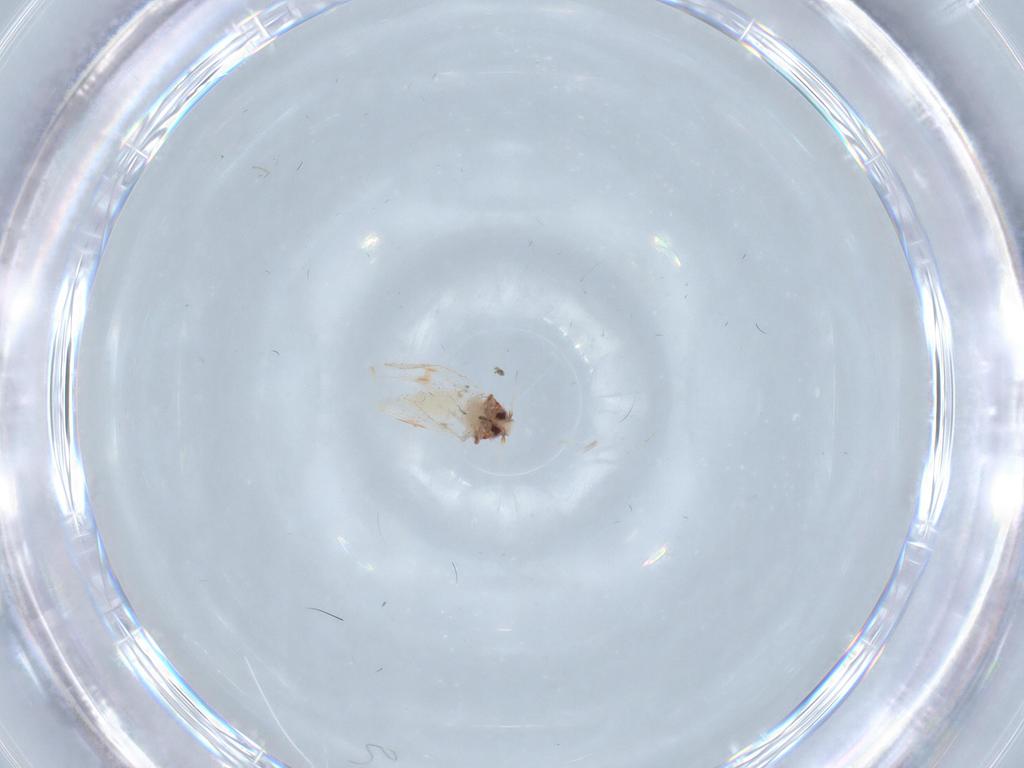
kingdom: Animalia
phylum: Arthropoda
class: Insecta
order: Hemiptera
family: Aleyrodidae
